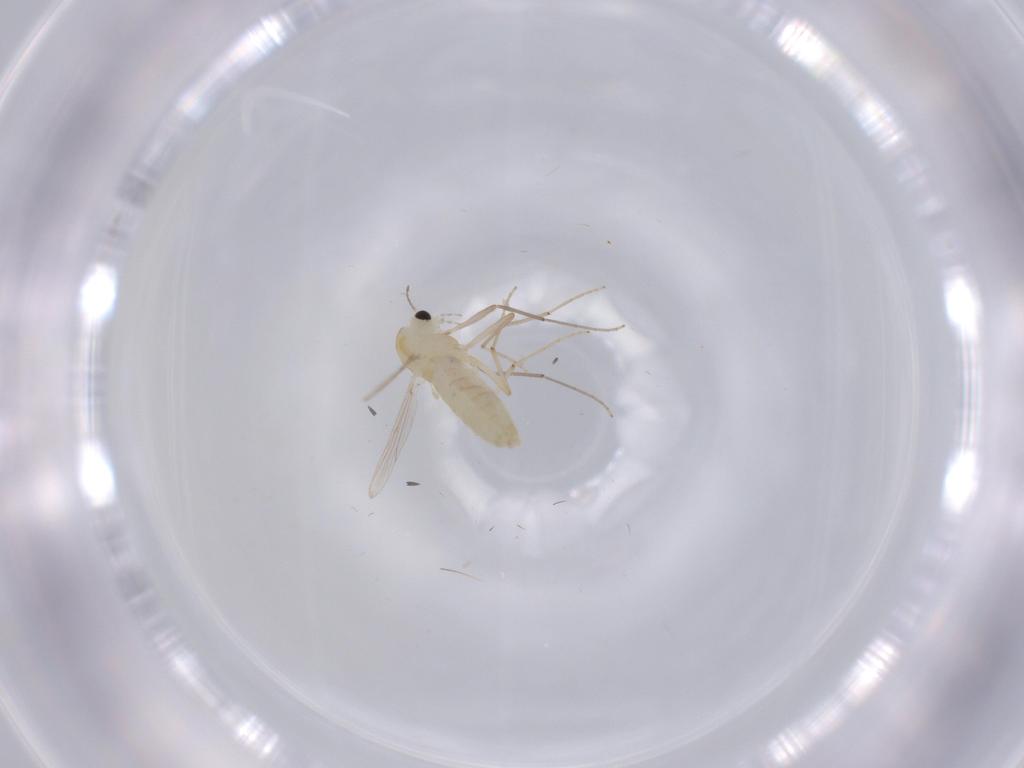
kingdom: Animalia
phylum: Arthropoda
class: Insecta
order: Diptera
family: Chironomidae
